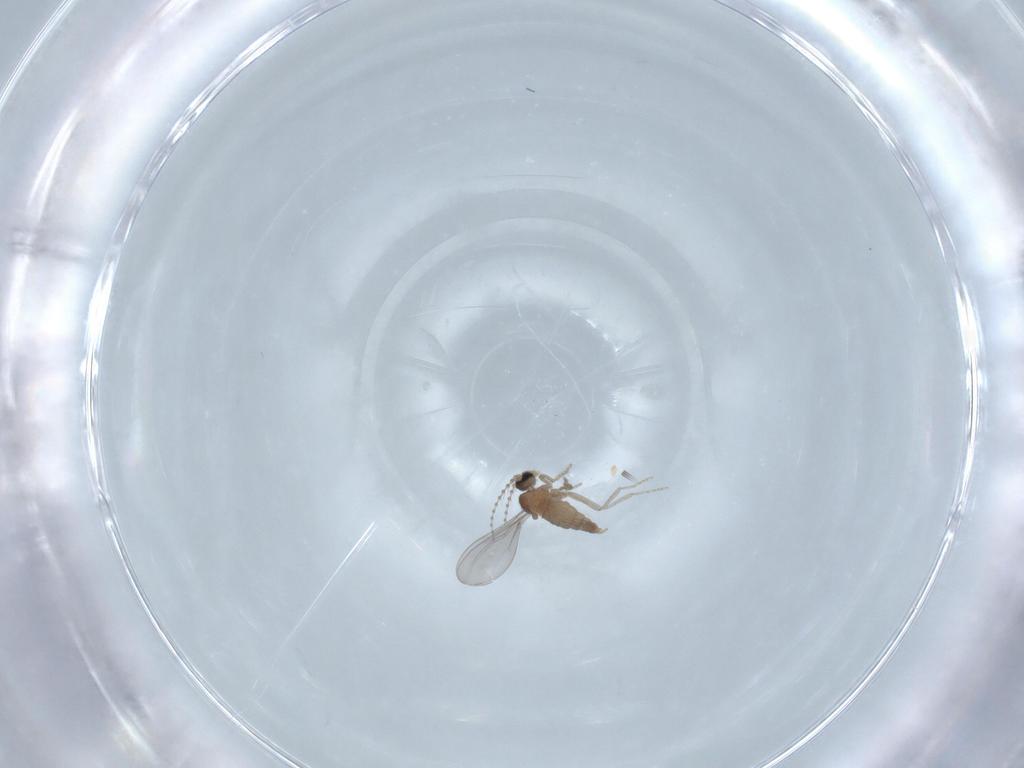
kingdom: Animalia
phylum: Arthropoda
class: Insecta
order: Diptera
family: Cecidomyiidae
